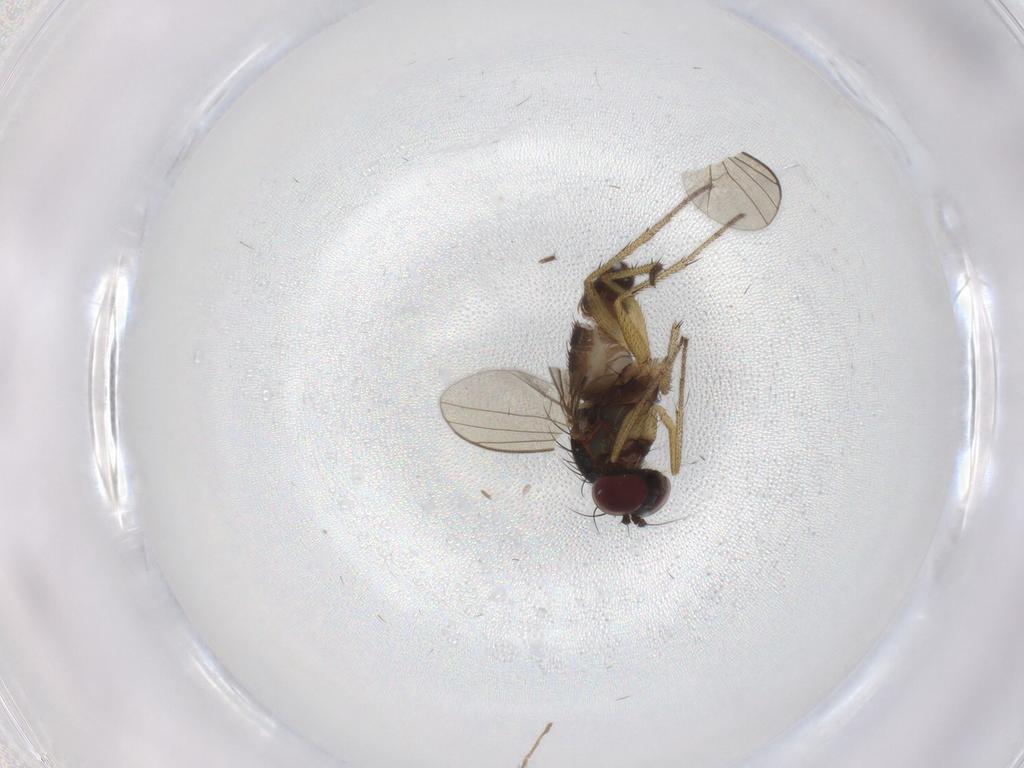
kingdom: Animalia
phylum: Arthropoda
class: Insecta
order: Diptera
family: Dolichopodidae
